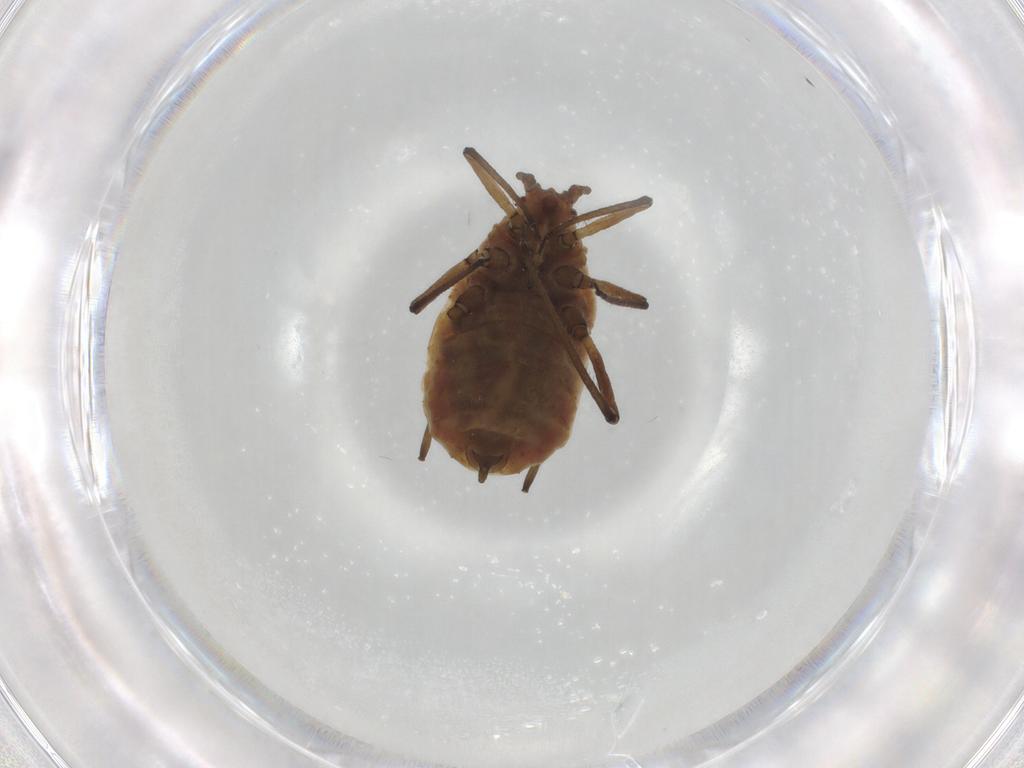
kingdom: Animalia
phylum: Arthropoda
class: Insecta
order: Hemiptera
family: Aphididae
